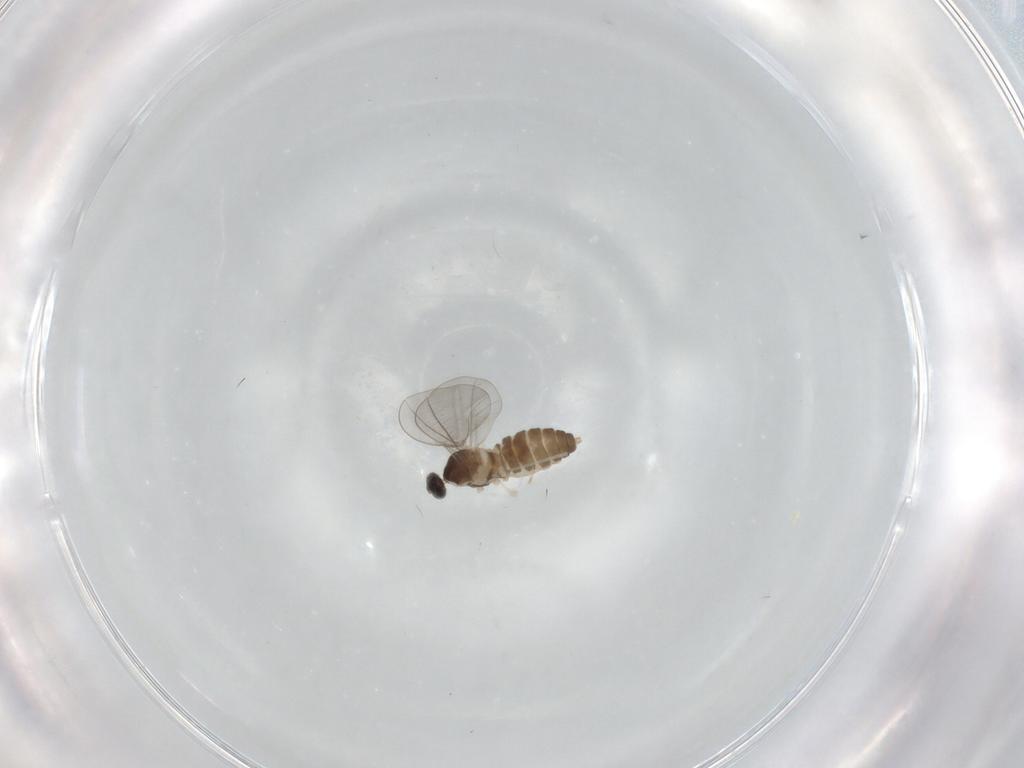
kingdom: Animalia
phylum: Arthropoda
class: Insecta
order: Diptera
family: Cecidomyiidae
